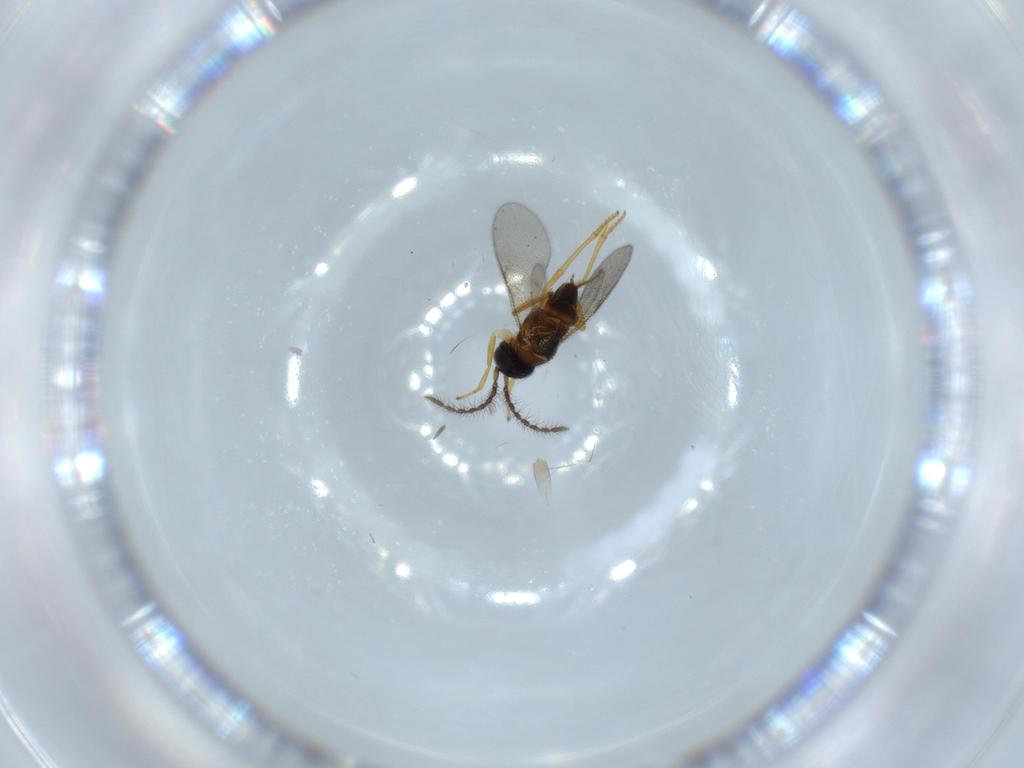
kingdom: Animalia
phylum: Arthropoda
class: Insecta
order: Hymenoptera
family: Trichogrammatidae
